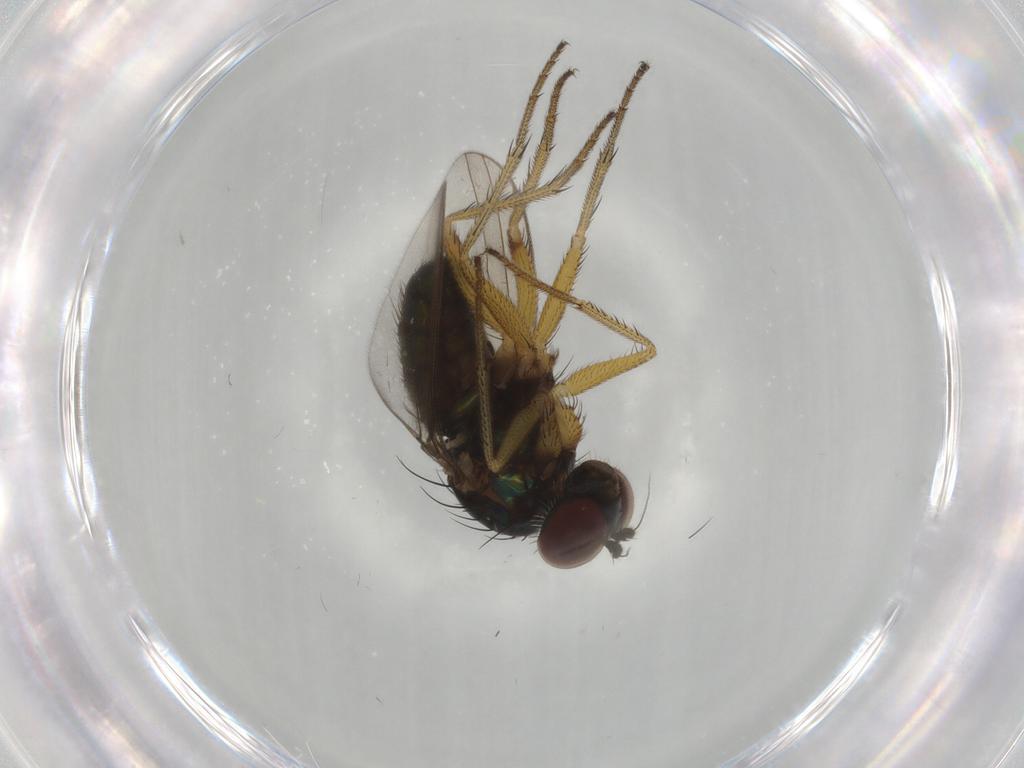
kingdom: Animalia
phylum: Arthropoda
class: Insecta
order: Diptera
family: Dolichopodidae
